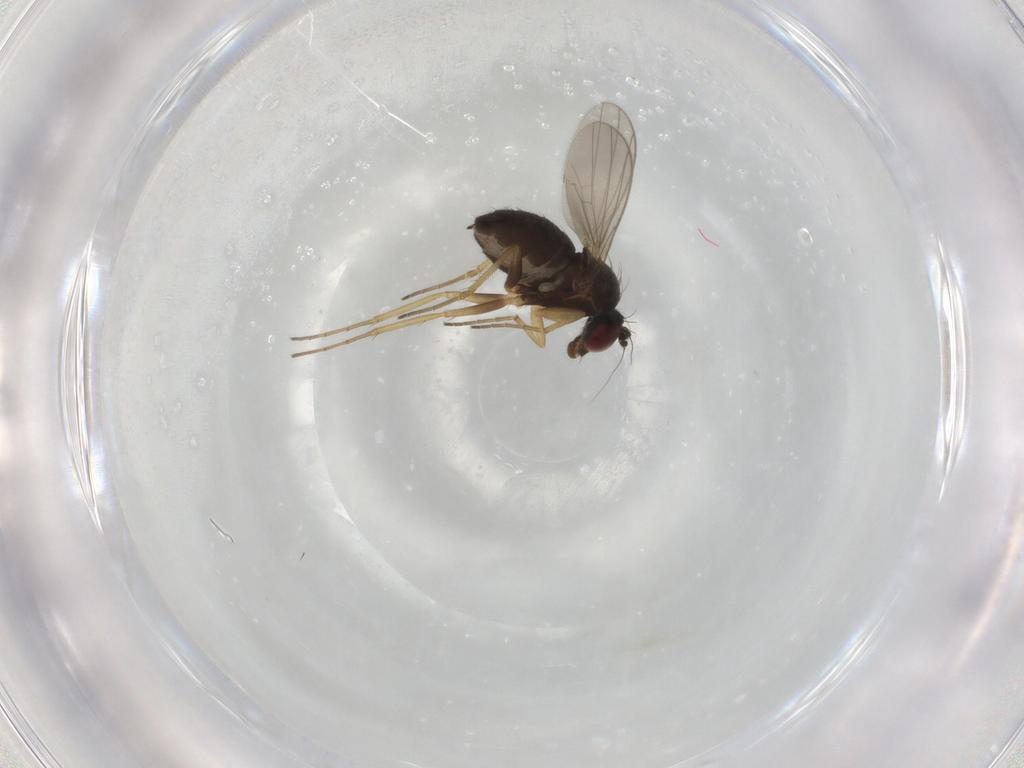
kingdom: Animalia
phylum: Arthropoda
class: Insecta
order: Diptera
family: Dolichopodidae
